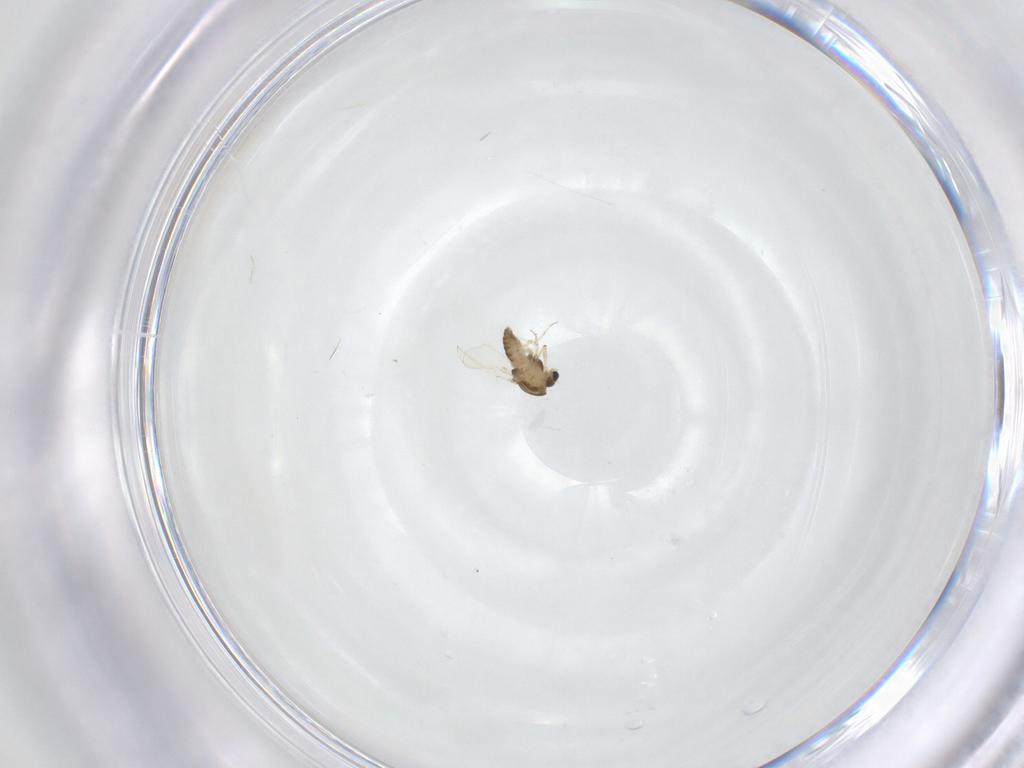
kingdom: Animalia
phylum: Arthropoda
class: Insecta
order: Diptera
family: Chironomidae
